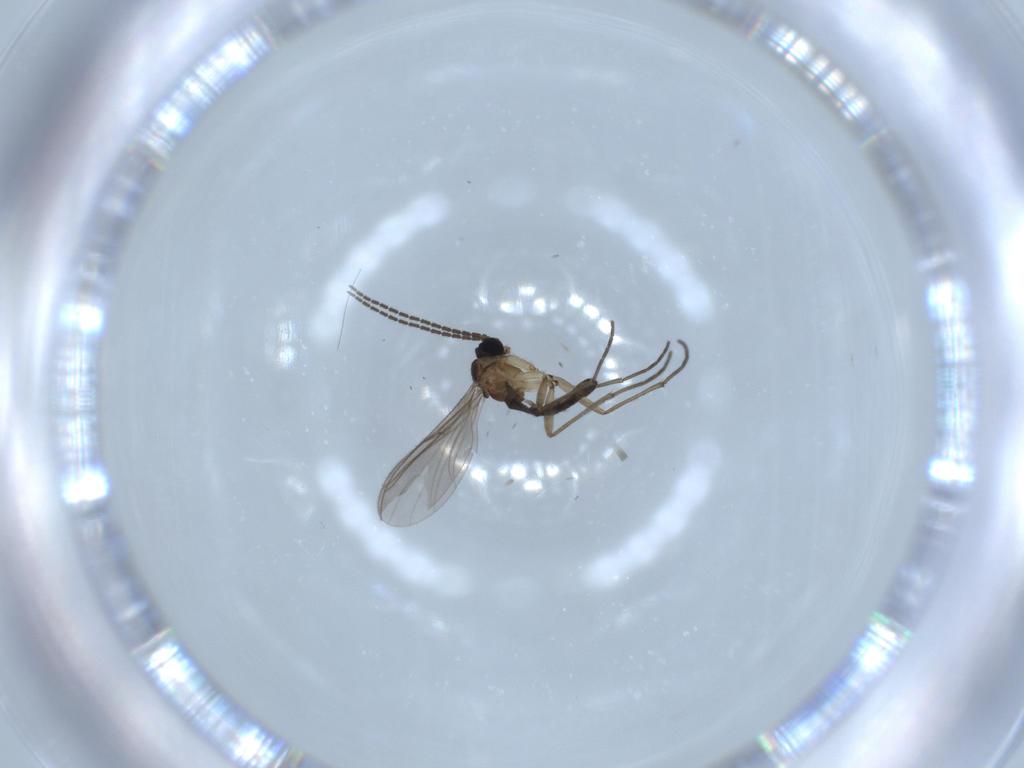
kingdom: Animalia
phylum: Arthropoda
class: Insecta
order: Diptera
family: Sciaridae
